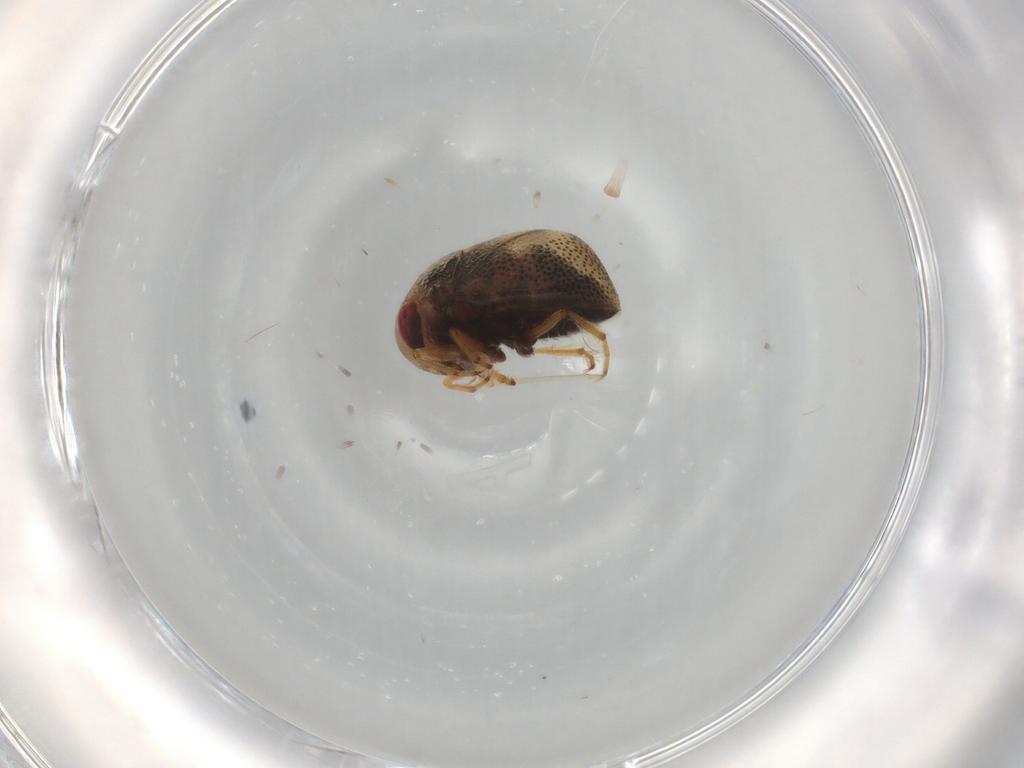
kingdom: Animalia
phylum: Arthropoda
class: Insecta
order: Hemiptera
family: Pleidae
